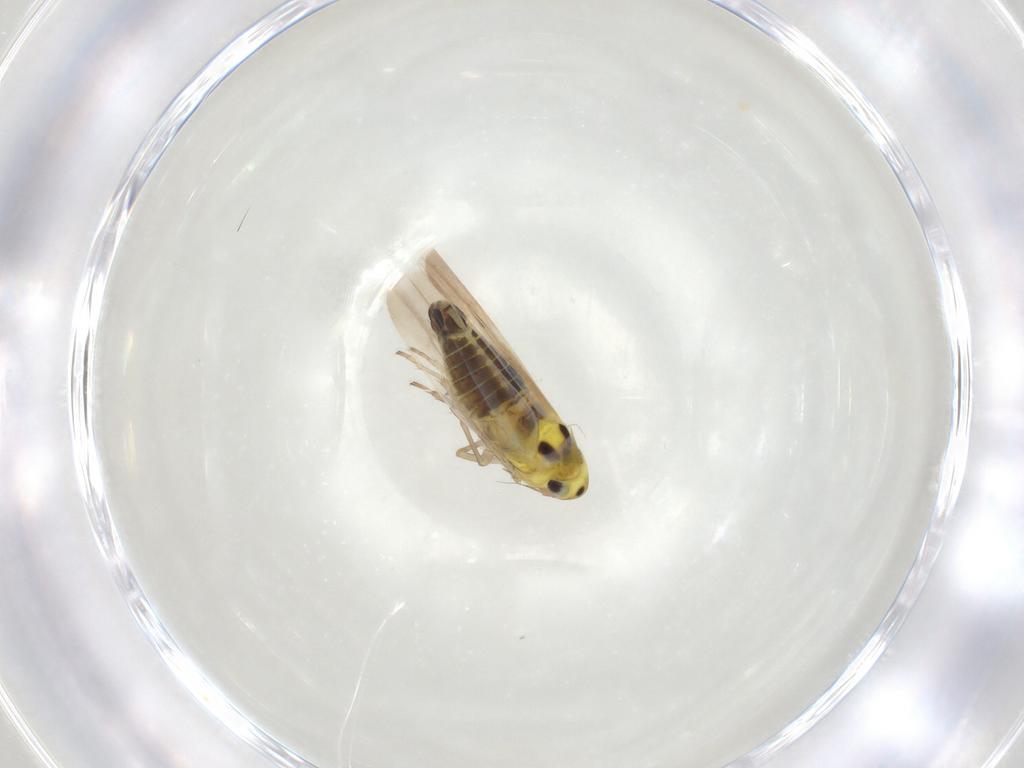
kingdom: Animalia
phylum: Arthropoda
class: Insecta
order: Hemiptera
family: Cicadellidae
